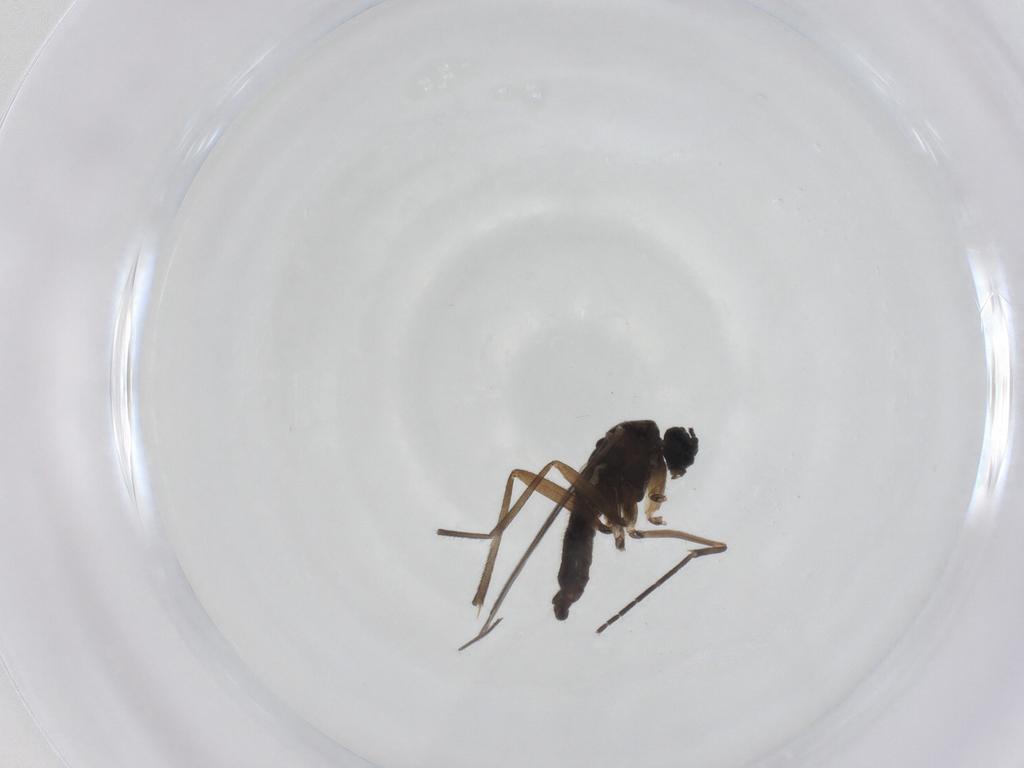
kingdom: Animalia
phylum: Arthropoda
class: Insecta
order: Diptera
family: Sciaridae
